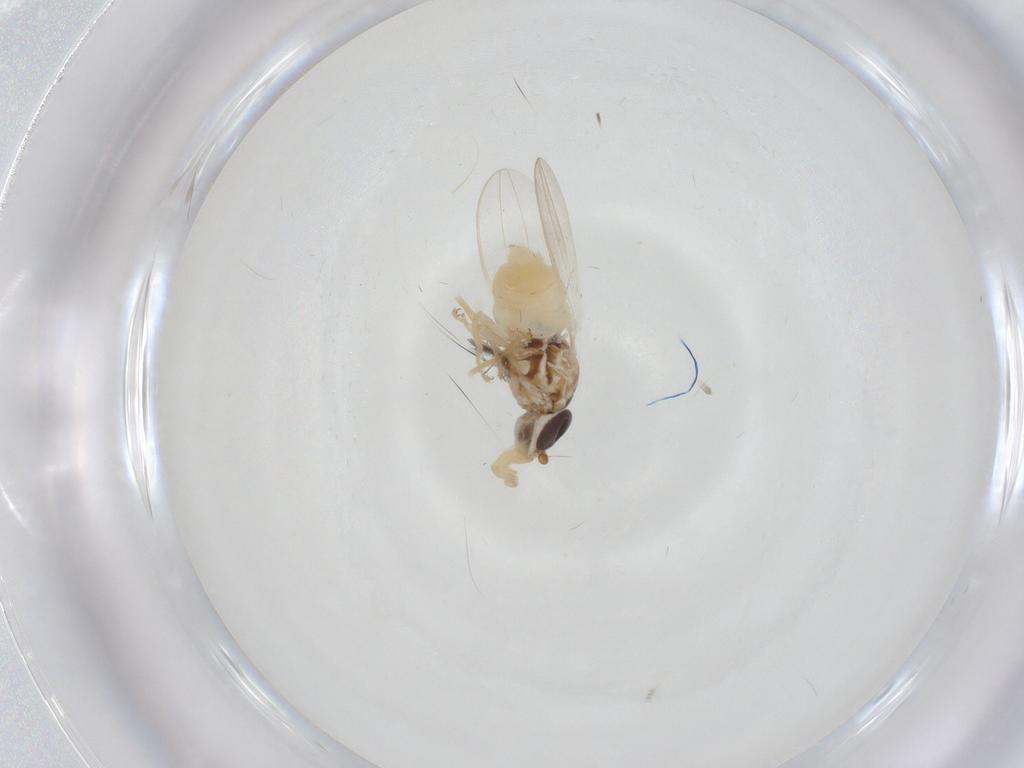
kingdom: Animalia
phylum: Arthropoda
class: Insecta
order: Diptera
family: Chloropidae
